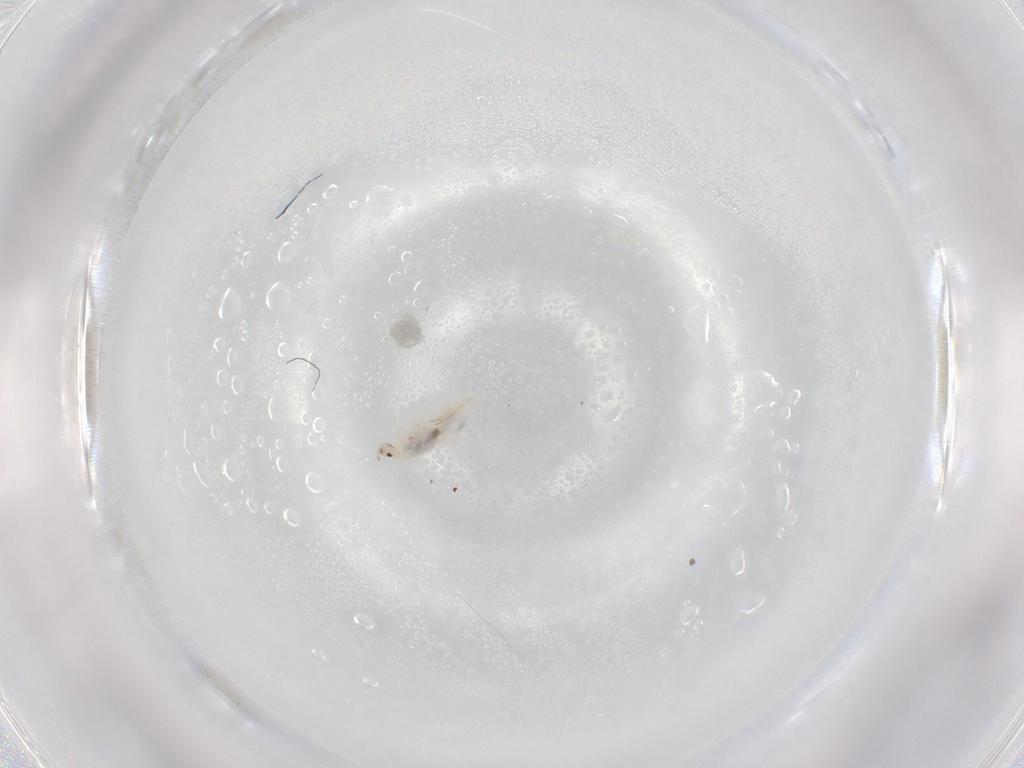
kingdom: Animalia
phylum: Arthropoda
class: Collembola
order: Entomobryomorpha
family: Entomobryidae
